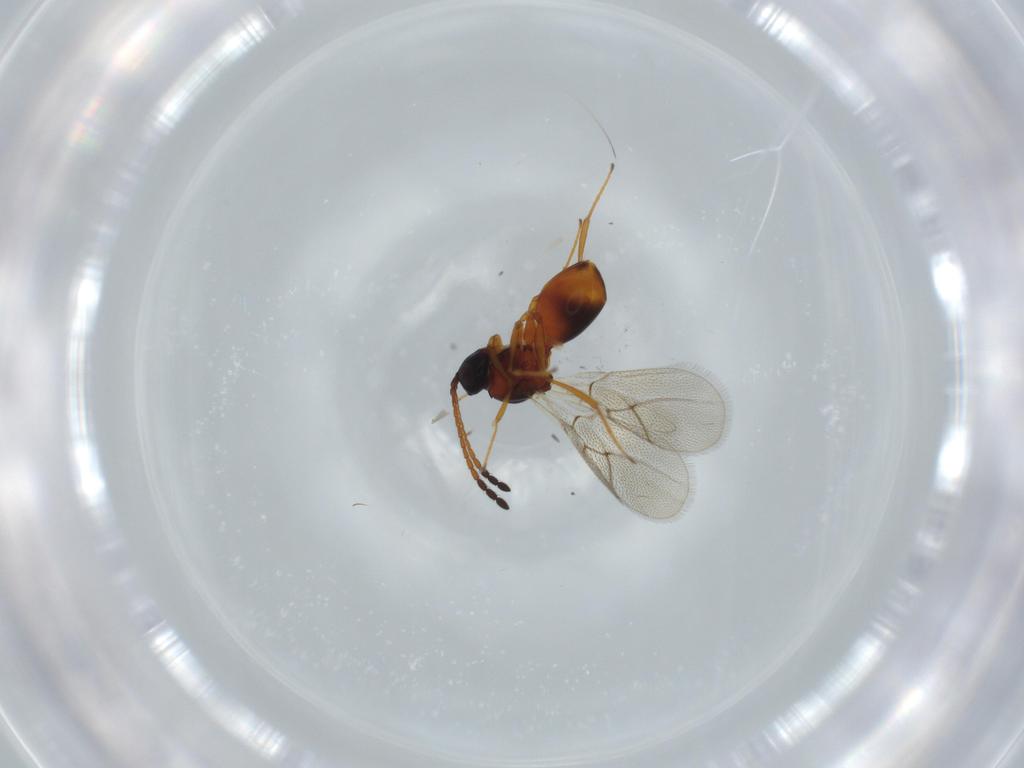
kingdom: Animalia
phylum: Arthropoda
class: Insecta
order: Hymenoptera
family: Figitidae
